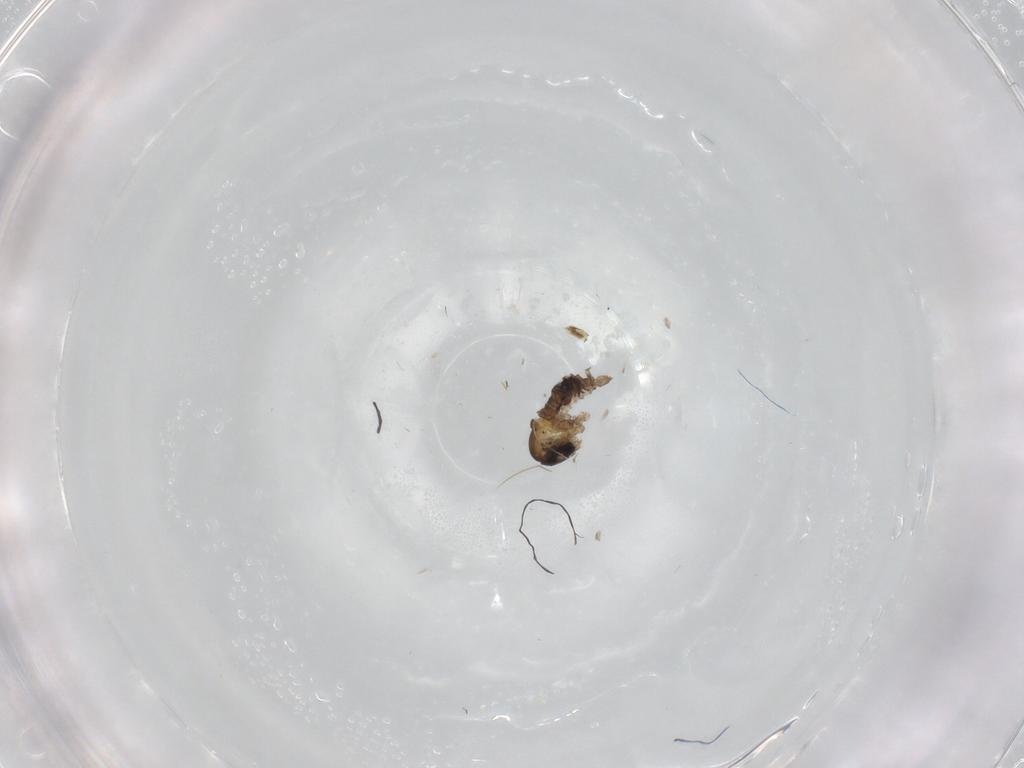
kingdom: Animalia
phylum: Arthropoda
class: Insecta
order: Diptera
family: Psychodidae
